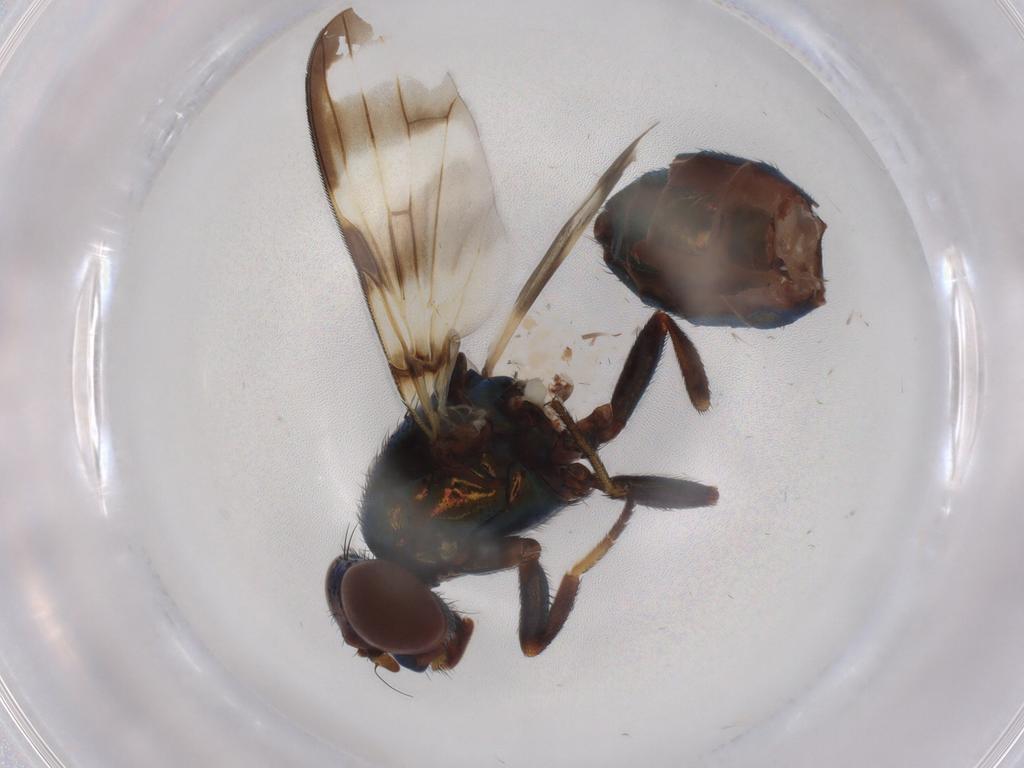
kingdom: Animalia
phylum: Arthropoda
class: Insecta
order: Diptera
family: Ulidiidae
